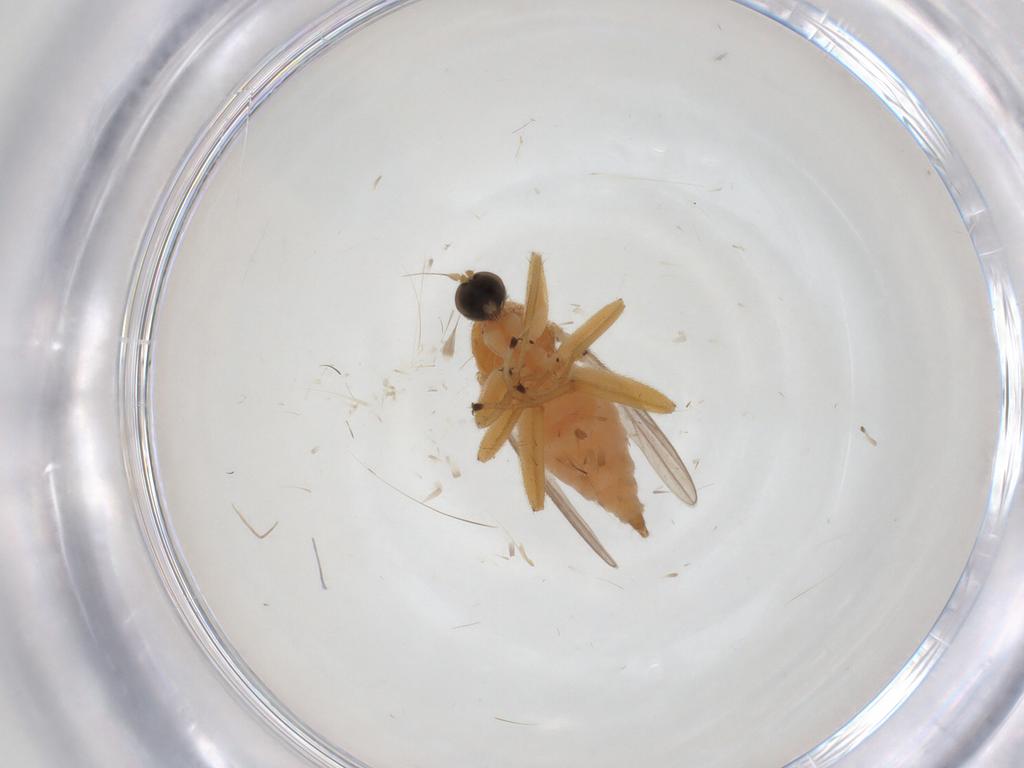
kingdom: Animalia
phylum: Arthropoda
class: Insecta
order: Diptera
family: Hybotidae
